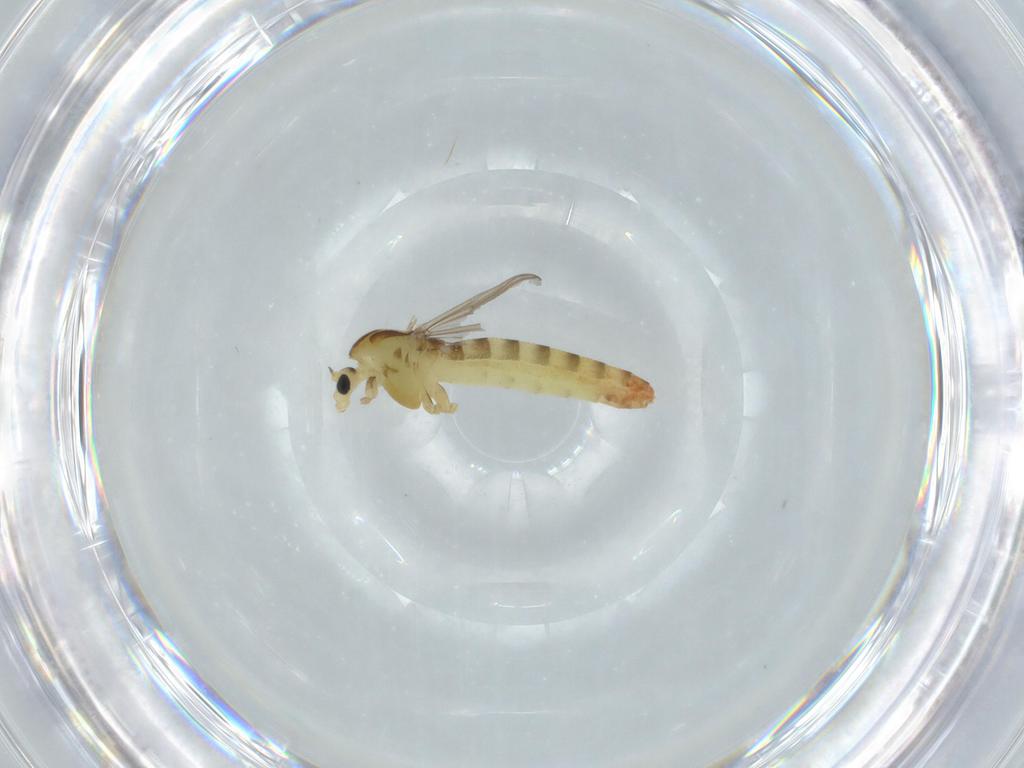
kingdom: Animalia
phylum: Arthropoda
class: Insecta
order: Diptera
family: Chironomidae
